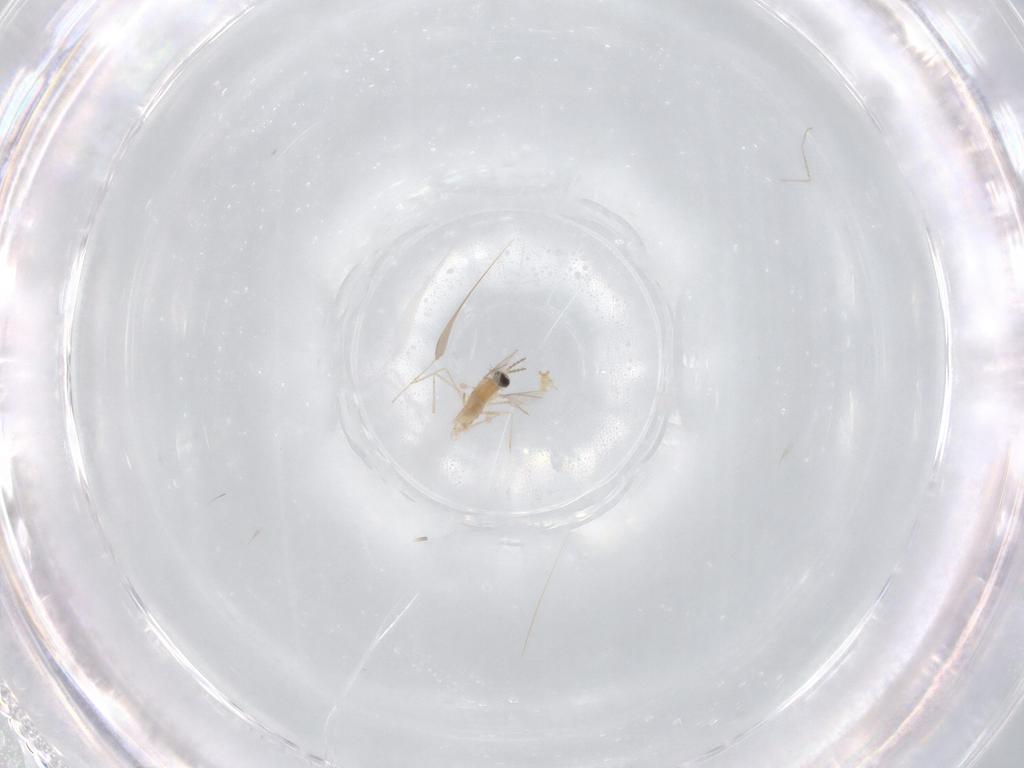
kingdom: Animalia
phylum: Arthropoda
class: Insecta
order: Diptera
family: Cecidomyiidae
